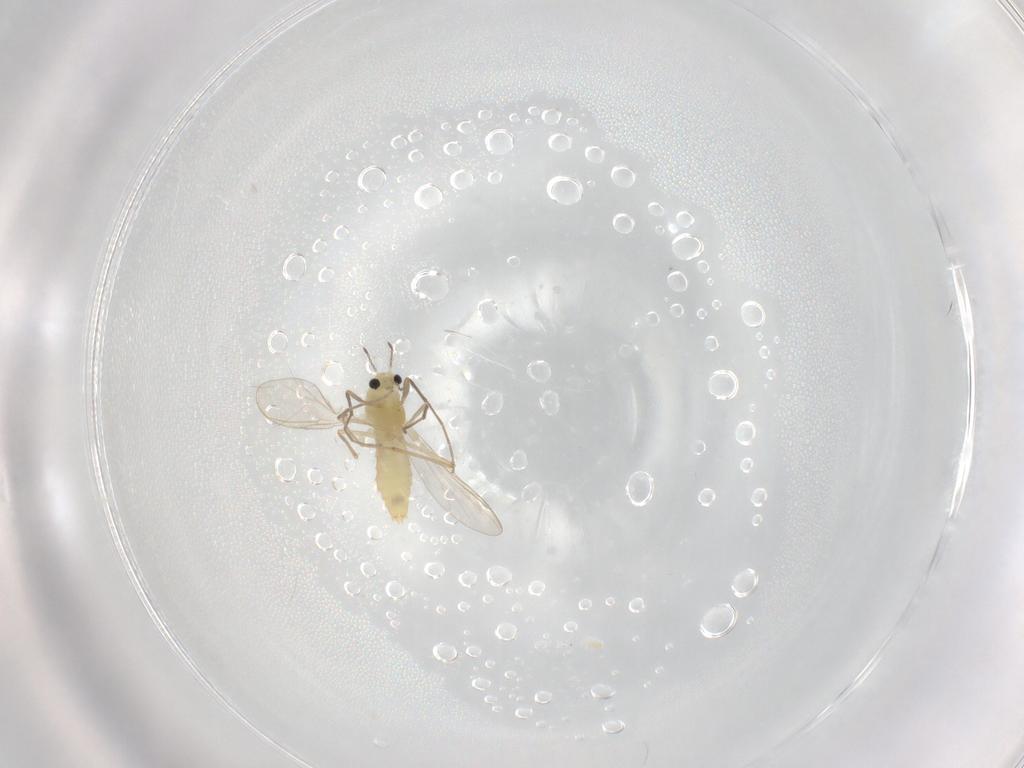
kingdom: Animalia
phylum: Arthropoda
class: Insecta
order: Diptera
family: Chironomidae
